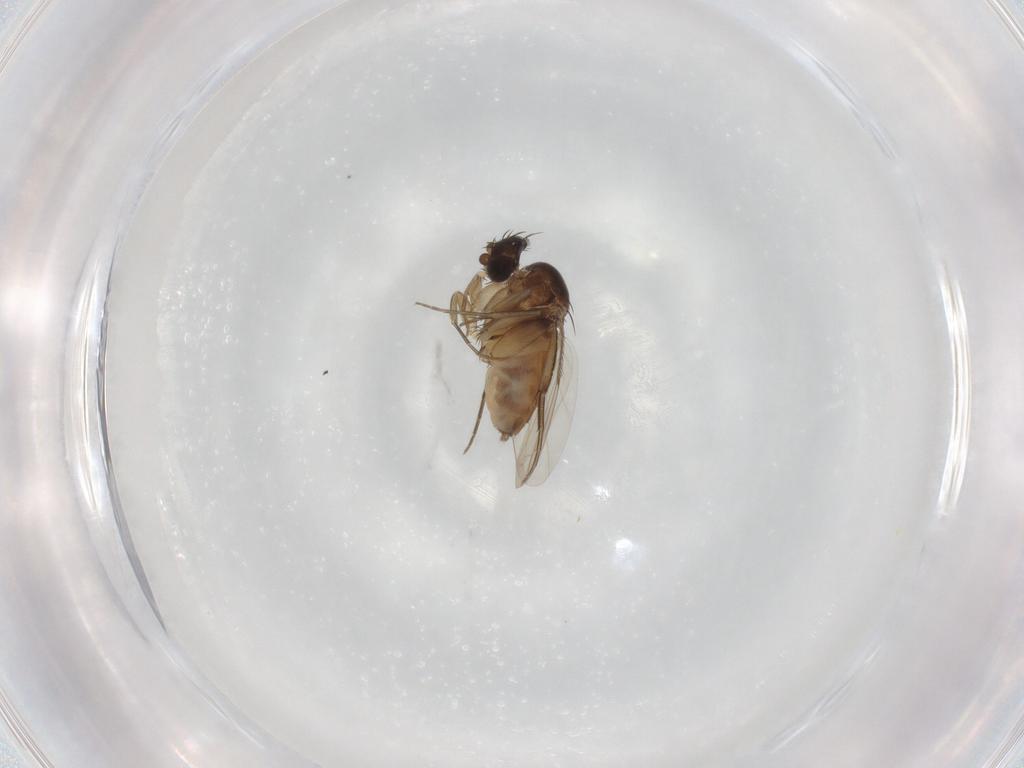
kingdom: Animalia
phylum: Arthropoda
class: Insecta
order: Diptera
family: Phoridae
